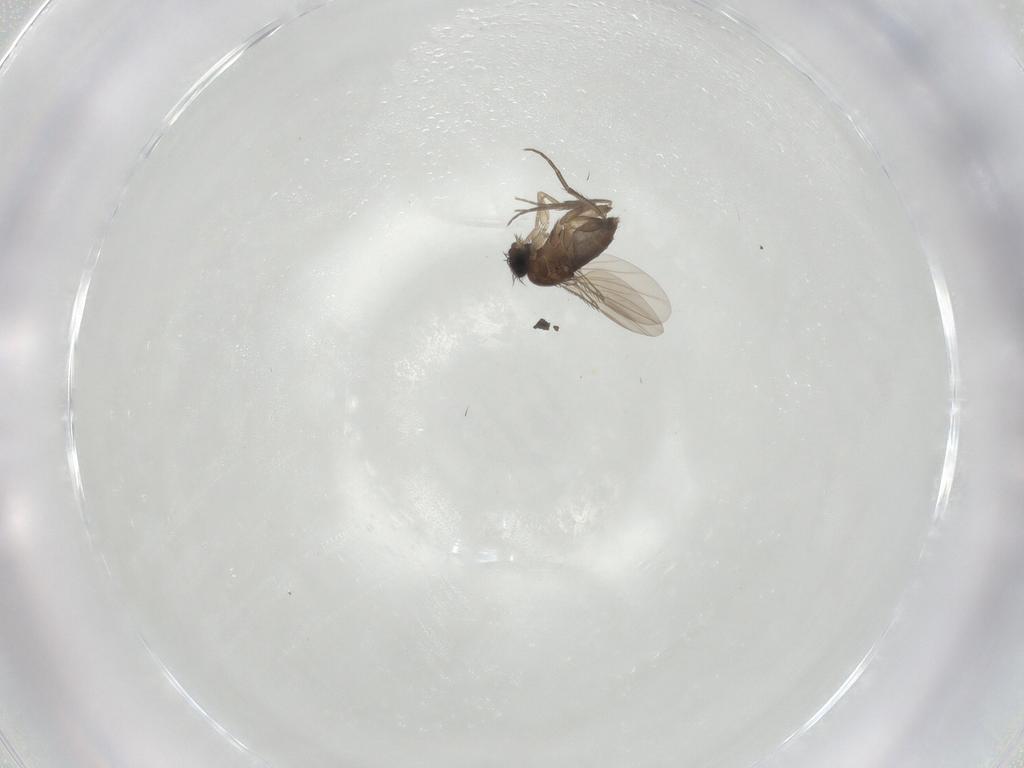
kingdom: Animalia
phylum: Arthropoda
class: Insecta
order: Diptera
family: Phoridae
